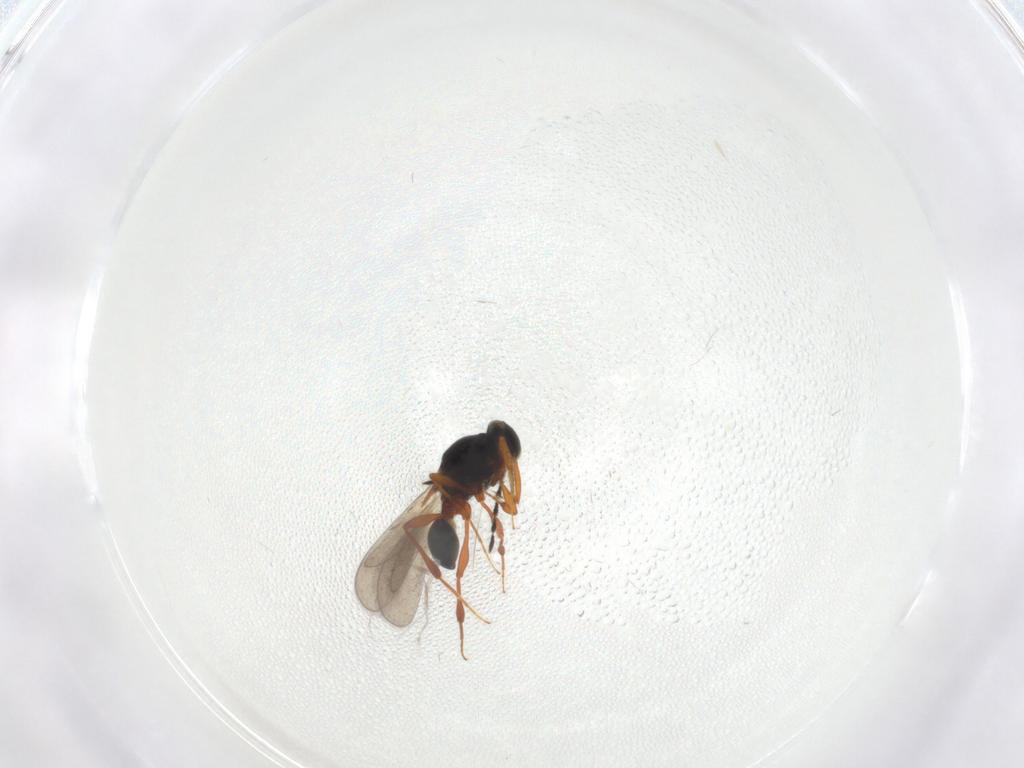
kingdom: Animalia
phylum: Arthropoda
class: Insecta
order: Hymenoptera
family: Platygastridae
